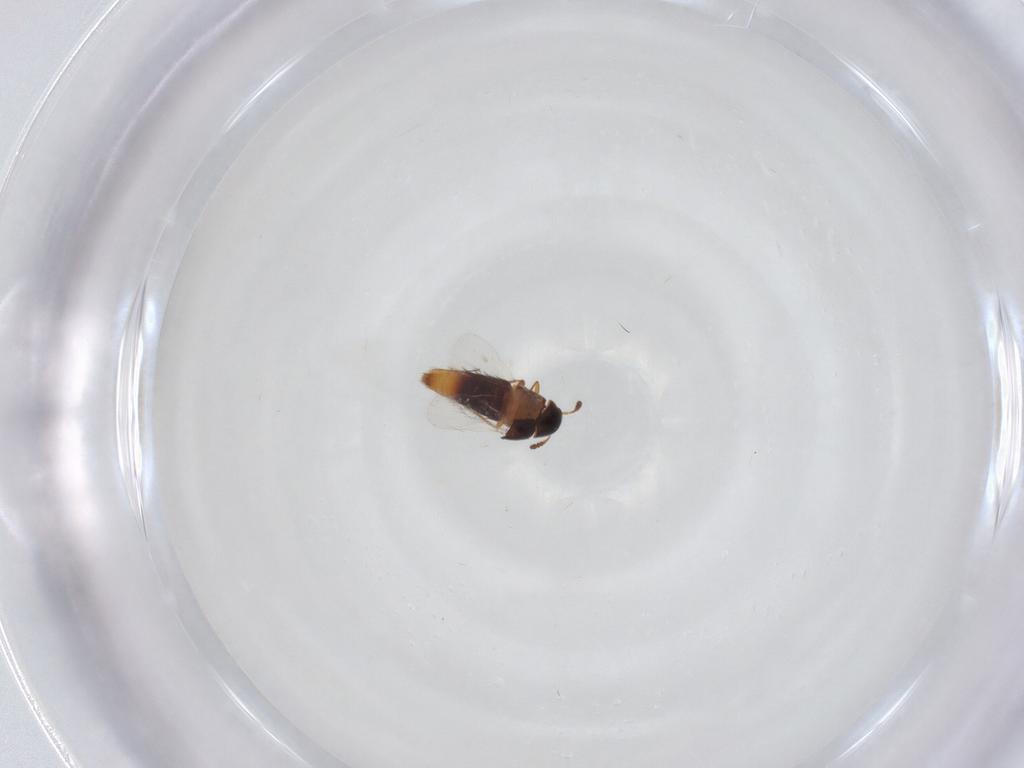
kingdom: Animalia
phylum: Arthropoda
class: Insecta
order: Coleoptera
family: Staphylinidae
